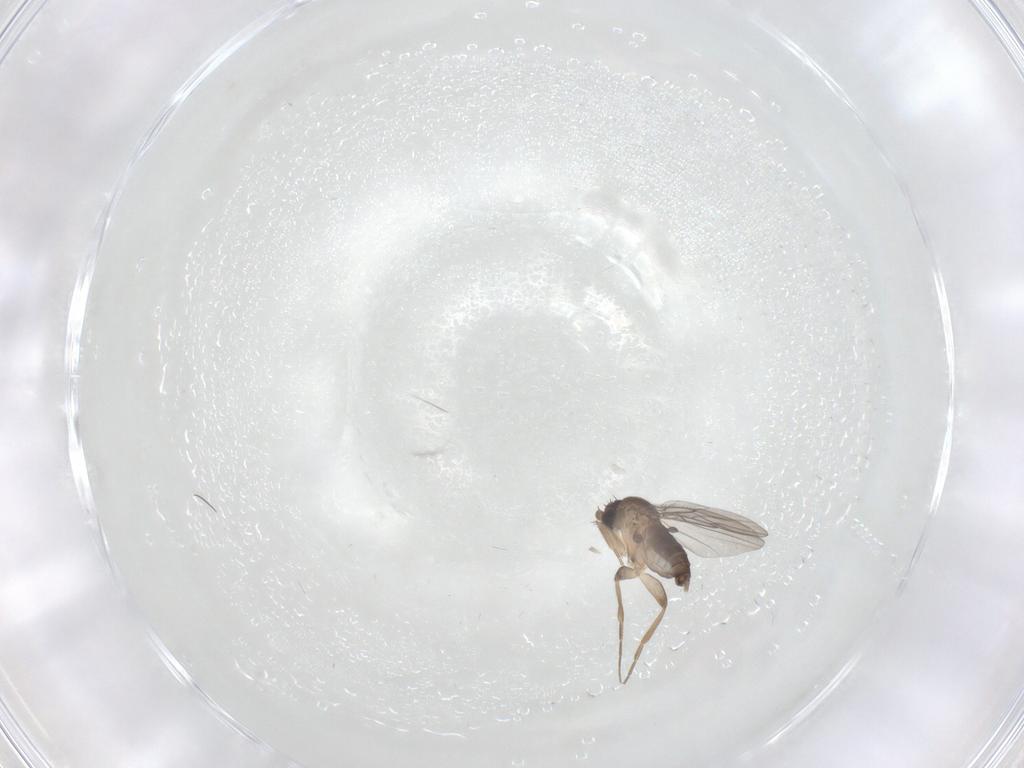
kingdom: Animalia
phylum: Arthropoda
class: Insecta
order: Diptera
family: Phoridae
